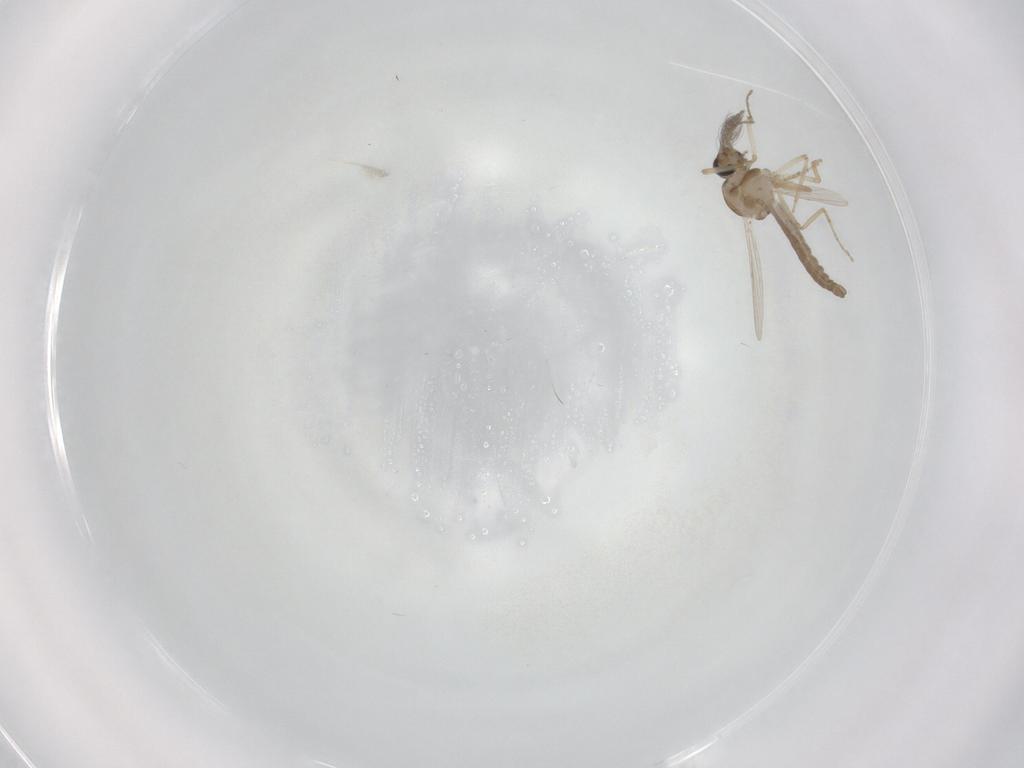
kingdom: Animalia
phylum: Arthropoda
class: Insecta
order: Diptera
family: Ceratopogonidae
